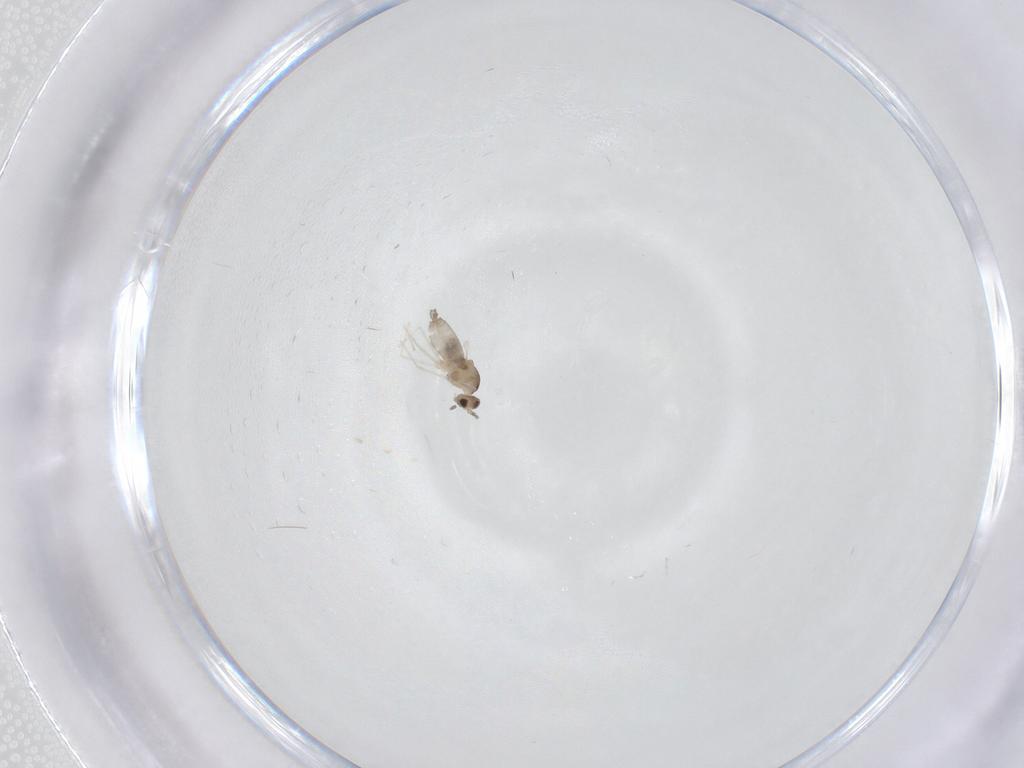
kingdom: Animalia
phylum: Arthropoda
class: Insecta
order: Diptera
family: Cecidomyiidae
